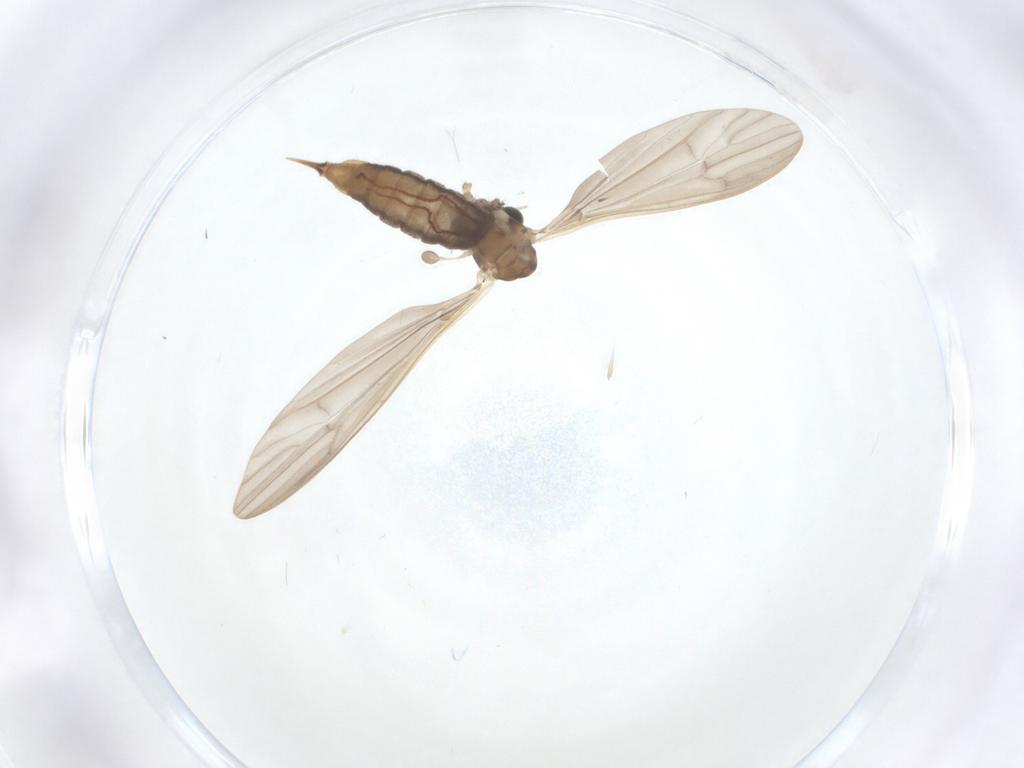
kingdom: Animalia
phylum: Arthropoda
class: Insecta
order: Diptera
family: Limoniidae
